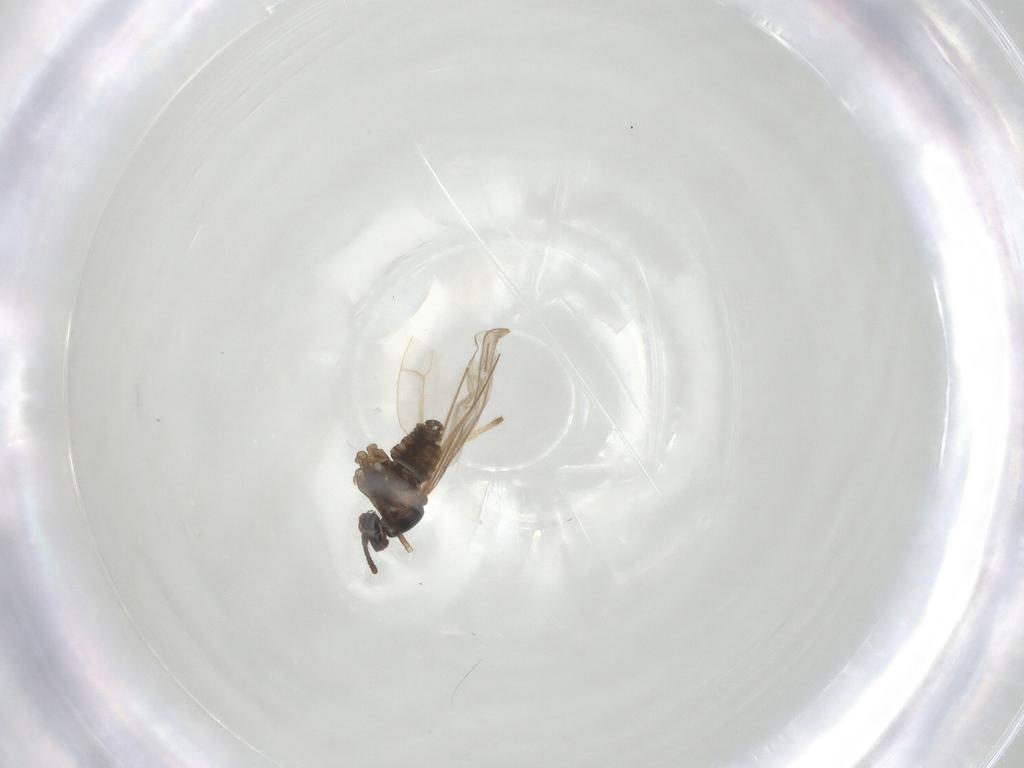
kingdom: Animalia
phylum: Arthropoda
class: Insecta
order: Diptera
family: Cecidomyiidae
